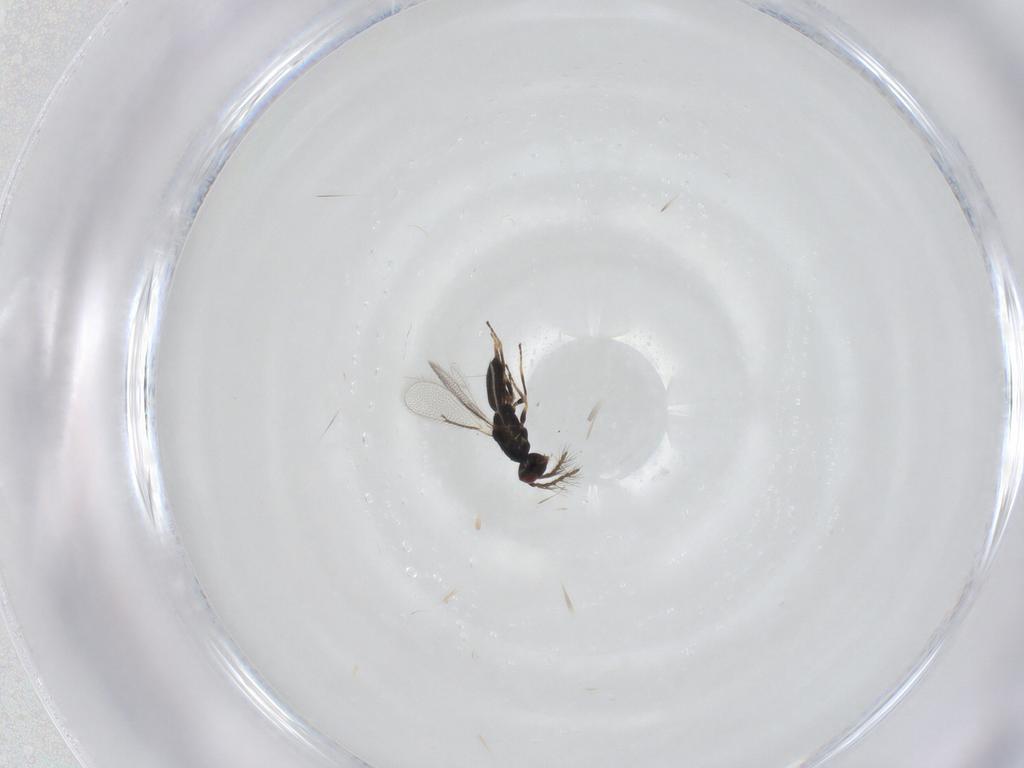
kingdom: Animalia
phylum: Arthropoda
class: Insecta
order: Hymenoptera
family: Eulophidae
